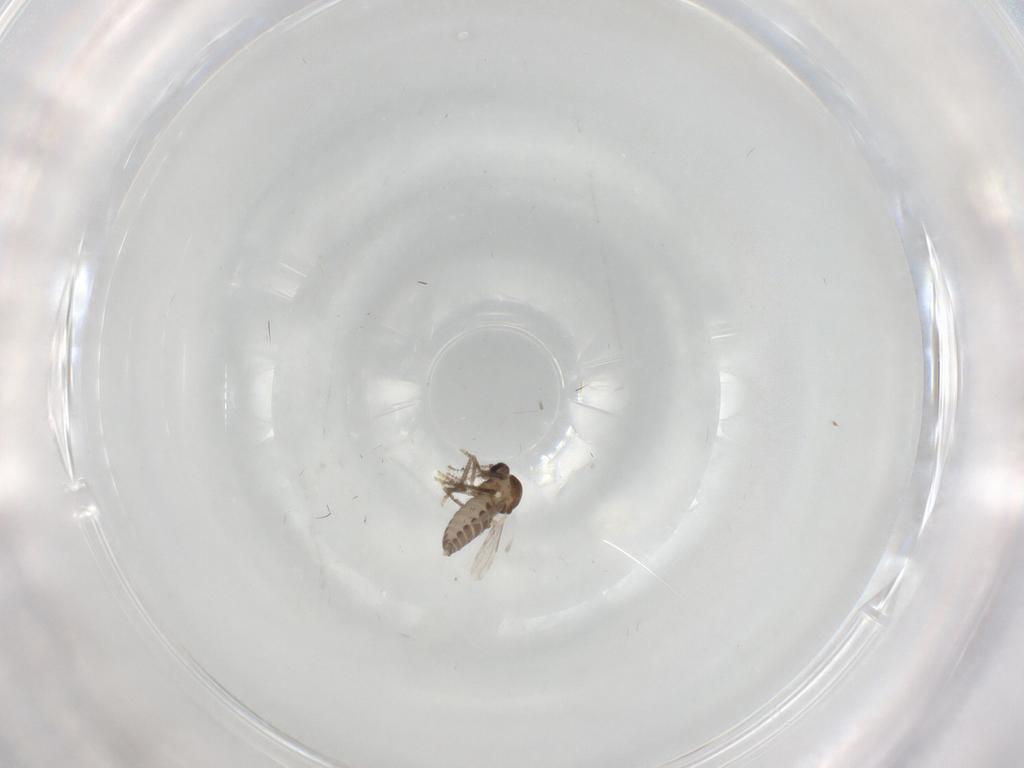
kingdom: Animalia
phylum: Arthropoda
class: Insecta
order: Diptera
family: Ceratopogonidae
